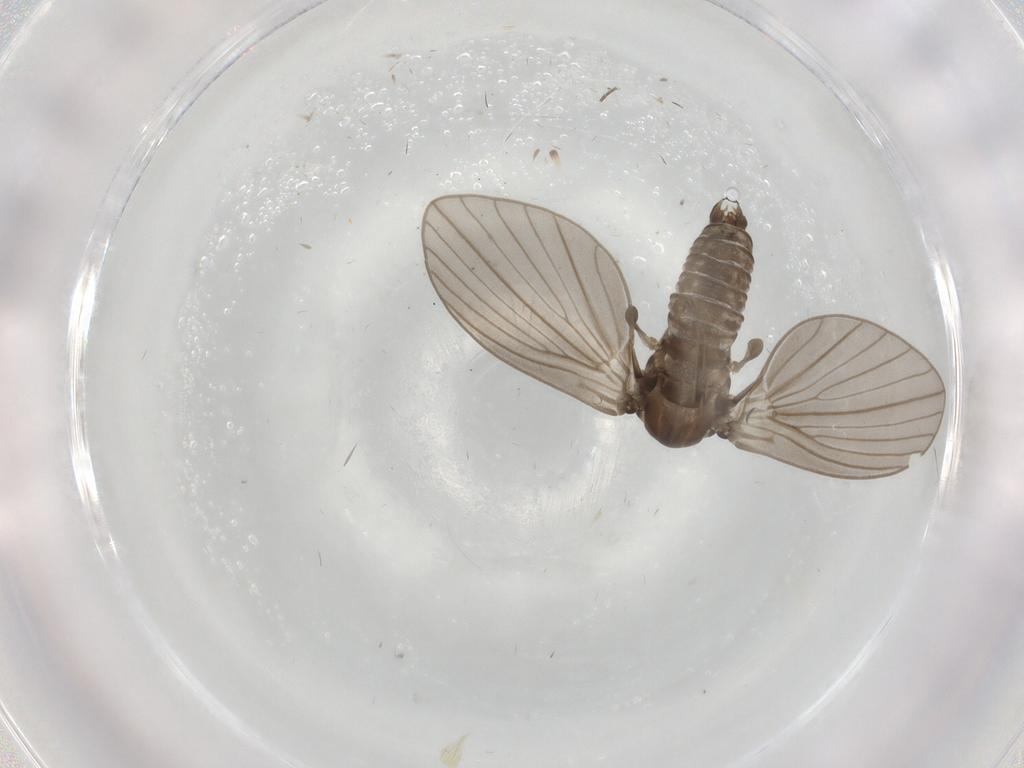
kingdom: Animalia
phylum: Arthropoda
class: Insecta
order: Diptera
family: Psychodidae
